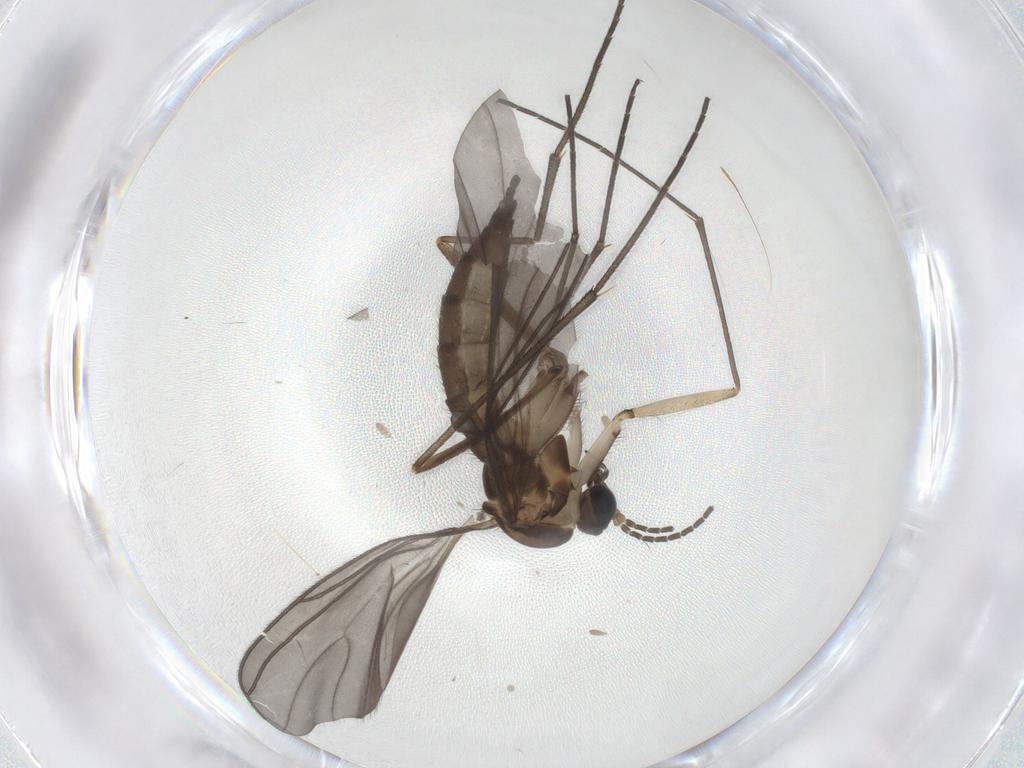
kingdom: Animalia
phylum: Arthropoda
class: Insecta
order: Diptera
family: Sciaridae
